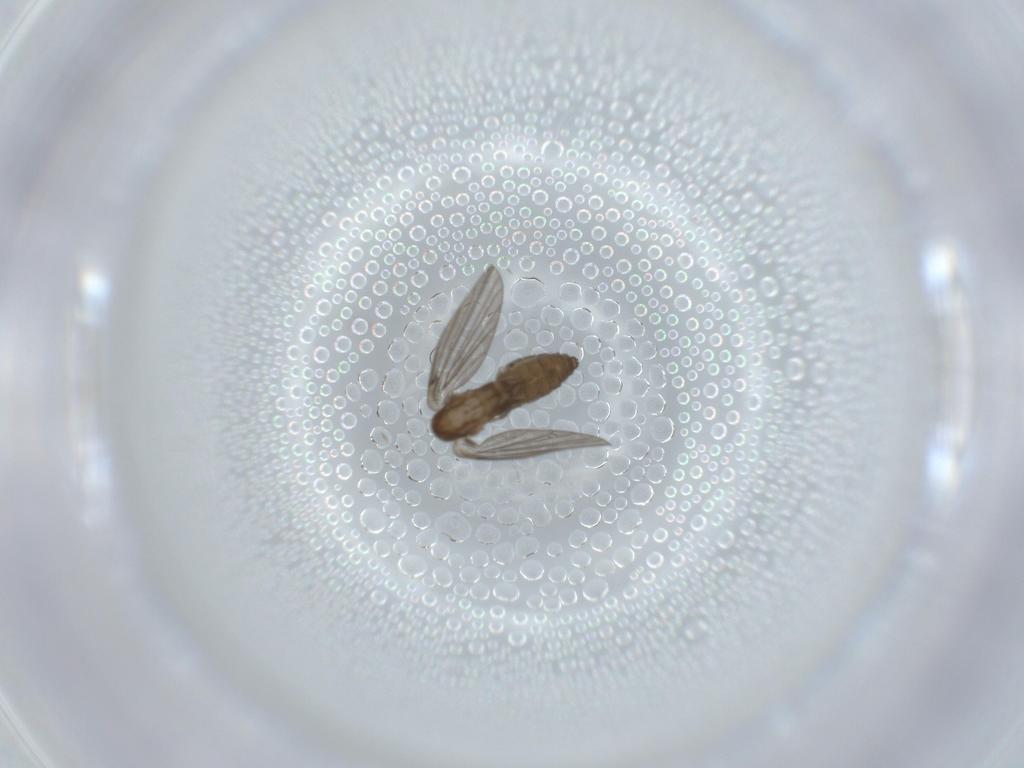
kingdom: Animalia
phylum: Arthropoda
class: Insecta
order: Diptera
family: Psychodidae
